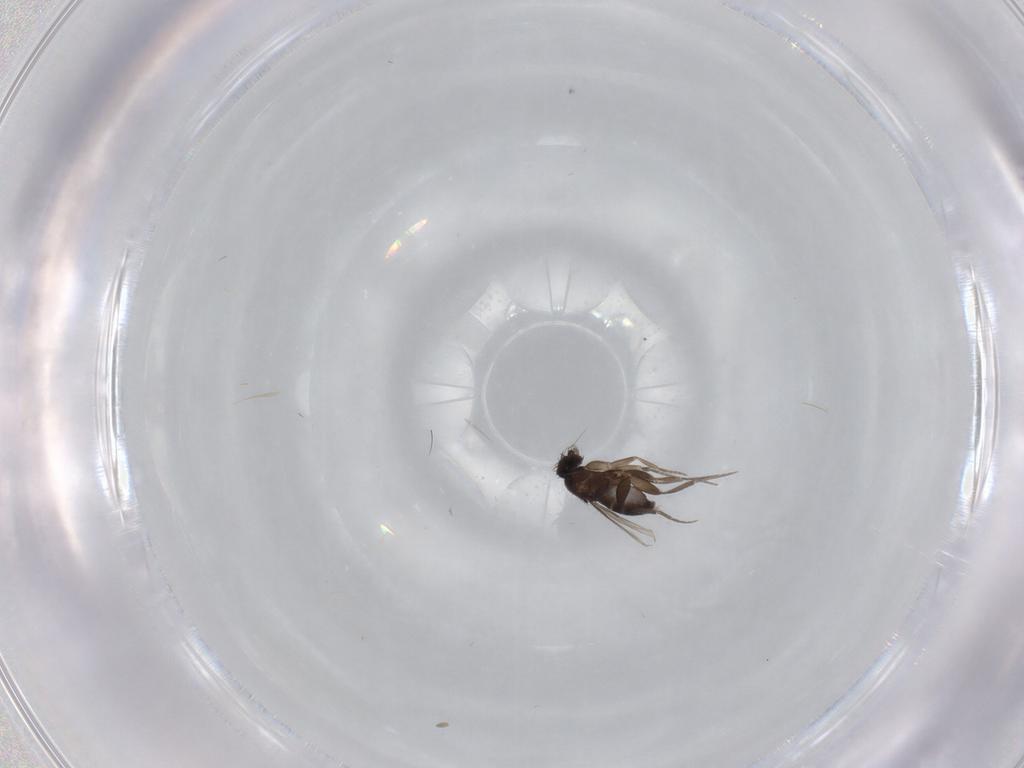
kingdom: Animalia
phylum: Arthropoda
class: Insecta
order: Diptera
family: Phoridae
